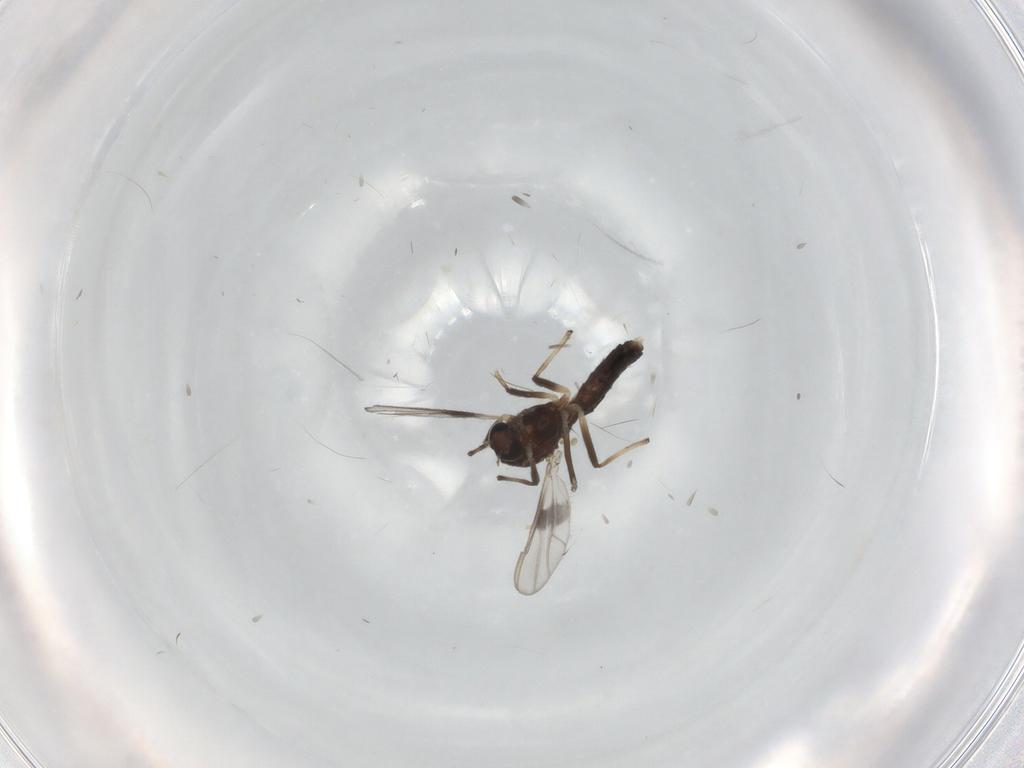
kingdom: Animalia
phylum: Arthropoda
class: Insecta
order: Diptera
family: Chironomidae
